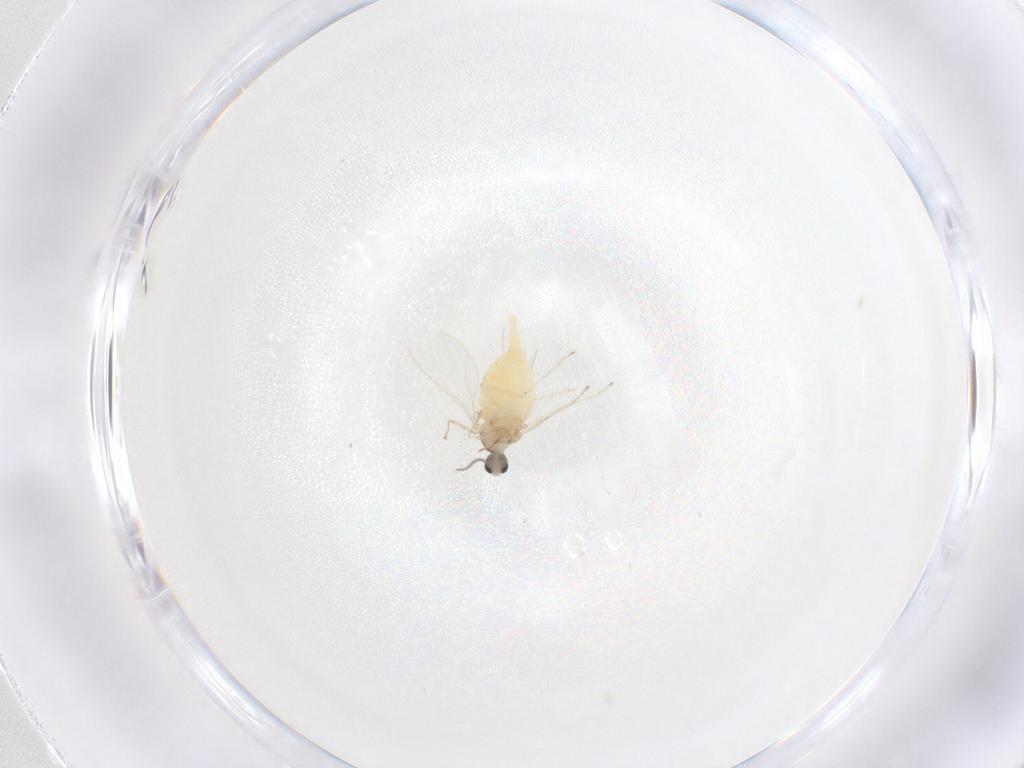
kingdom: Animalia
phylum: Arthropoda
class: Insecta
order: Diptera
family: Cecidomyiidae
